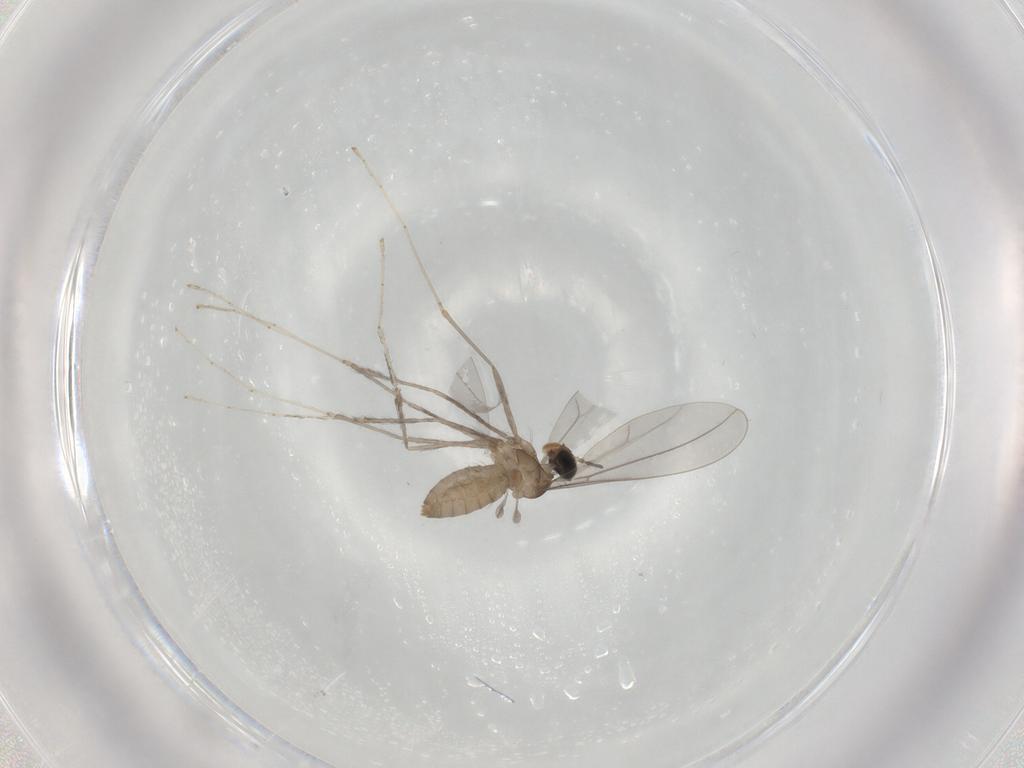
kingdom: Animalia
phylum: Arthropoda
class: Insecta
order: Diptera
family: Cecidomyiidae
